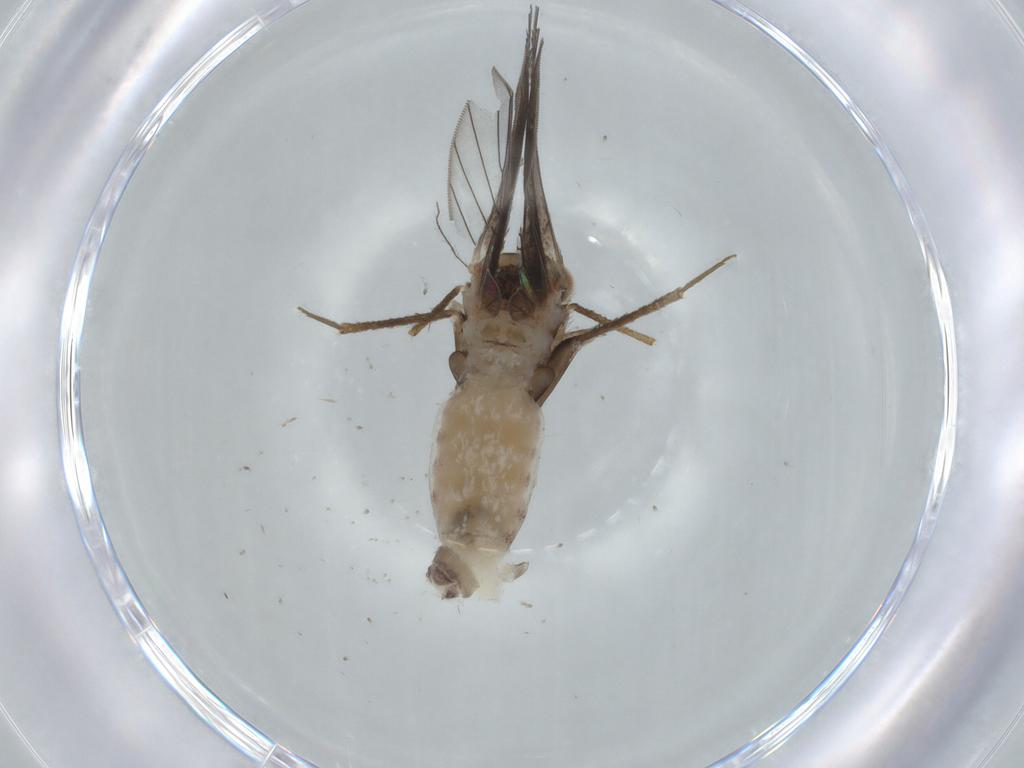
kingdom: Animalia
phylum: Arthropoda
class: Insecta
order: Psocodea
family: Lepidopsocidae
